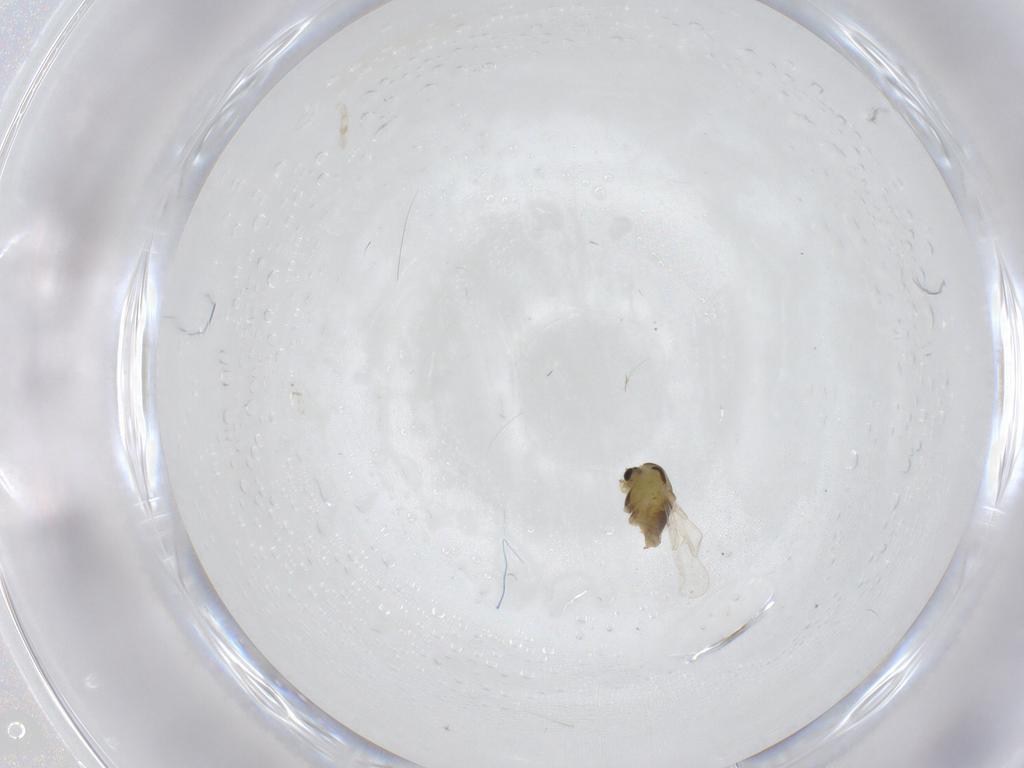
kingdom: Animalia
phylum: Arthropoda
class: Insecta
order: Diptera
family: Chironomidae
